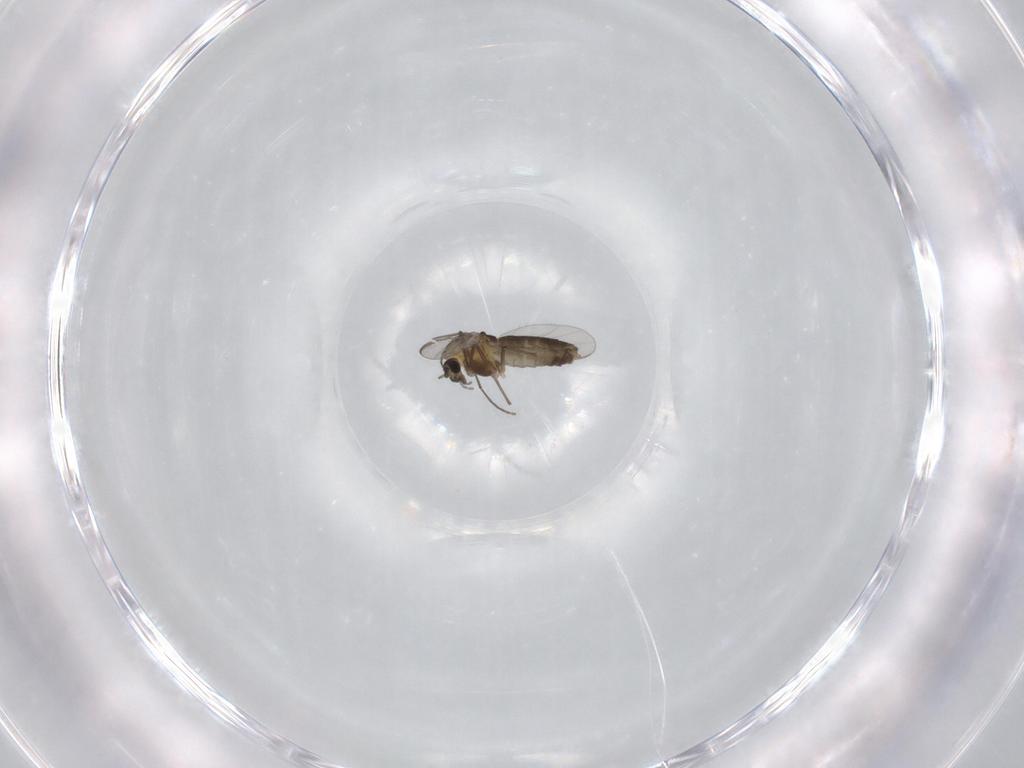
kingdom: Animalia
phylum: Arthropoda
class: Insecta
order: Diptera
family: Chironomidae
